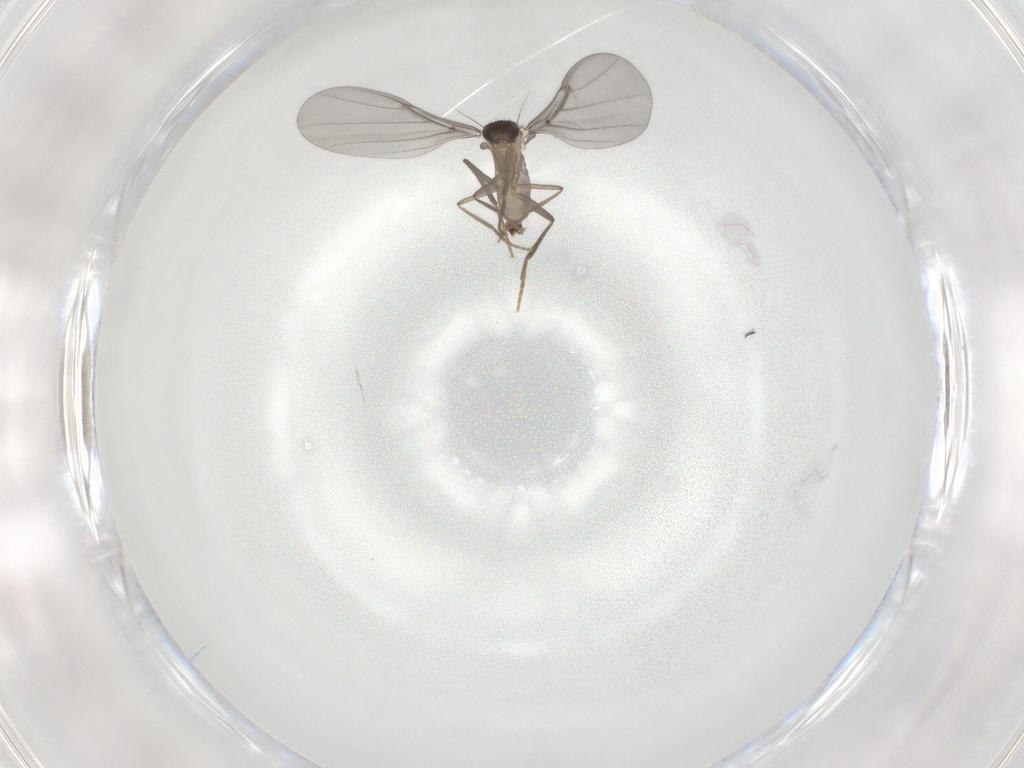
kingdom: Animalia
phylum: Arthropoda
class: Insecta
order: Diptera
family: Phoridae
